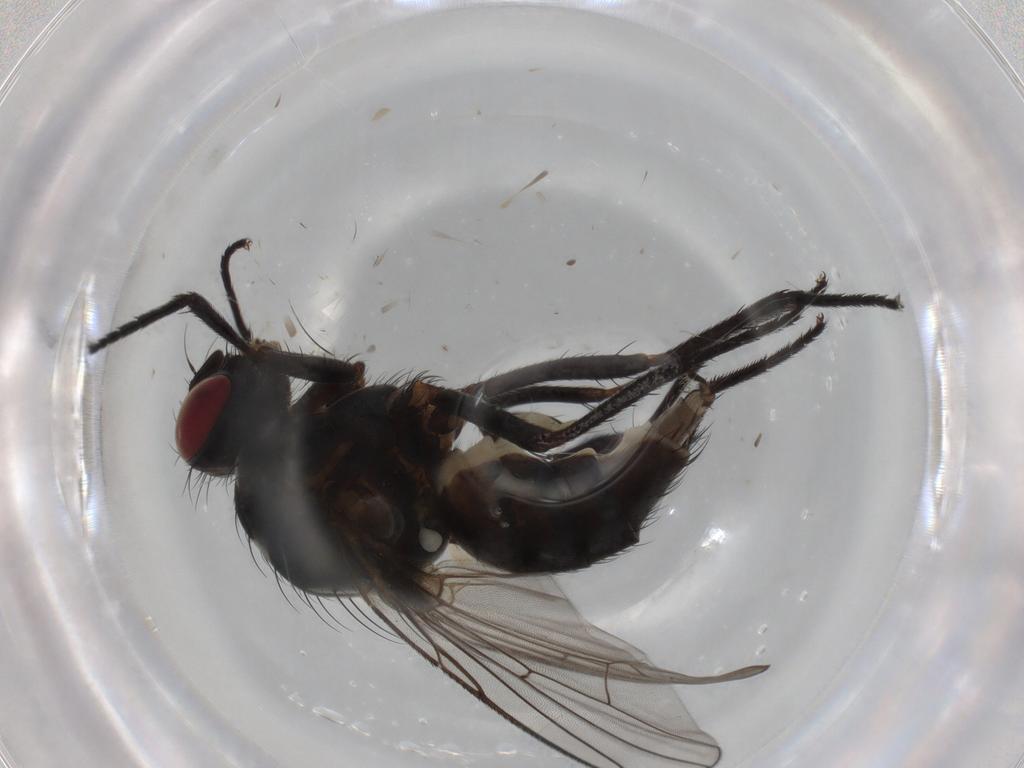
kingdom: Animalia
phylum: Arthropoda
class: Insecta
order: Diptera
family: Anthomyiidae
